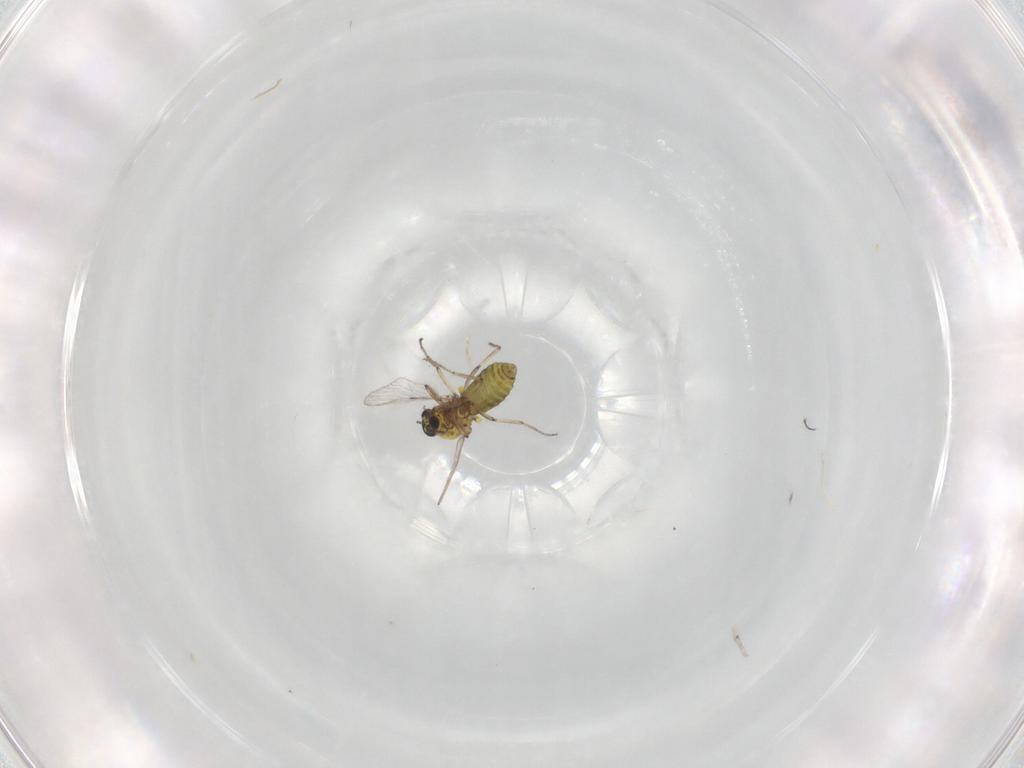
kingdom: Animalia
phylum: Arthropoda
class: Insecta
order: Diptera
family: Cecidomyiidae
